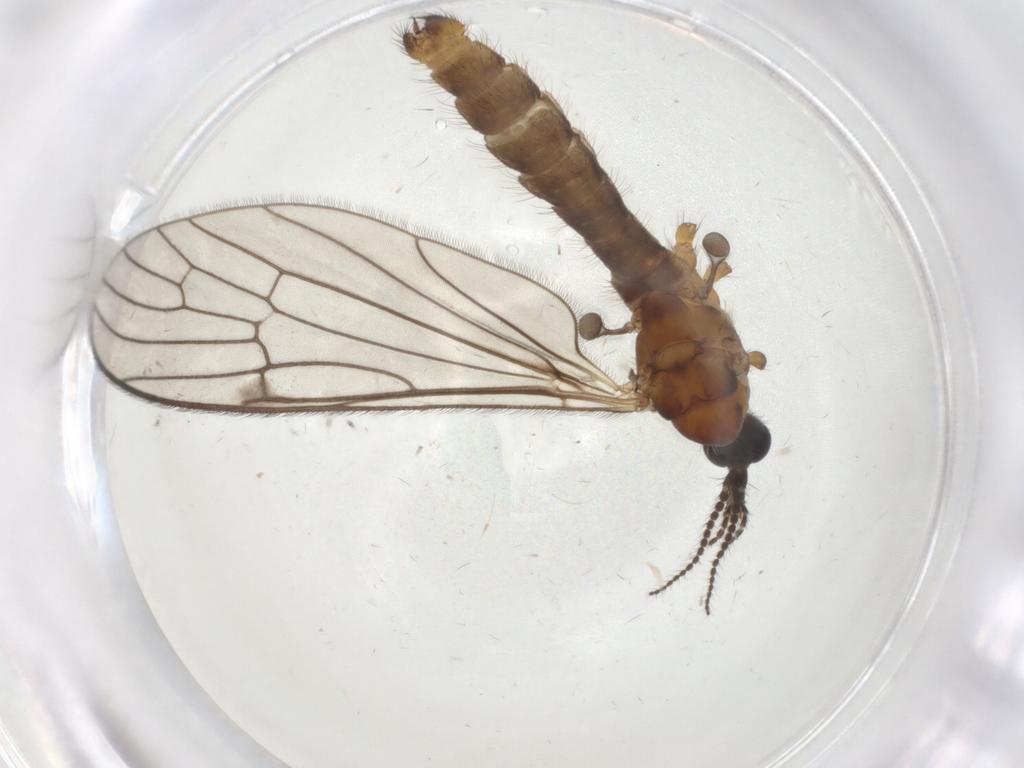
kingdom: Animalia
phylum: Arthropoda
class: Insecta
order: Diptera
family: Limoniidae
